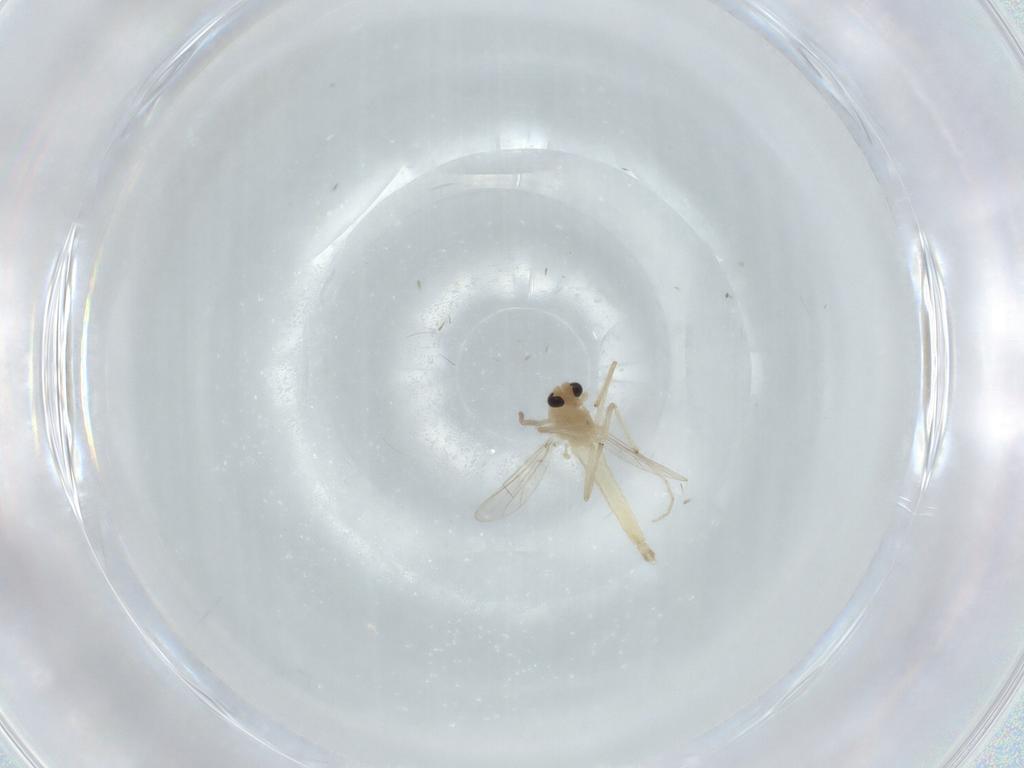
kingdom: Animalia
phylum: Arthropoda
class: Insecta
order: Diptera
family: Chironomidae
